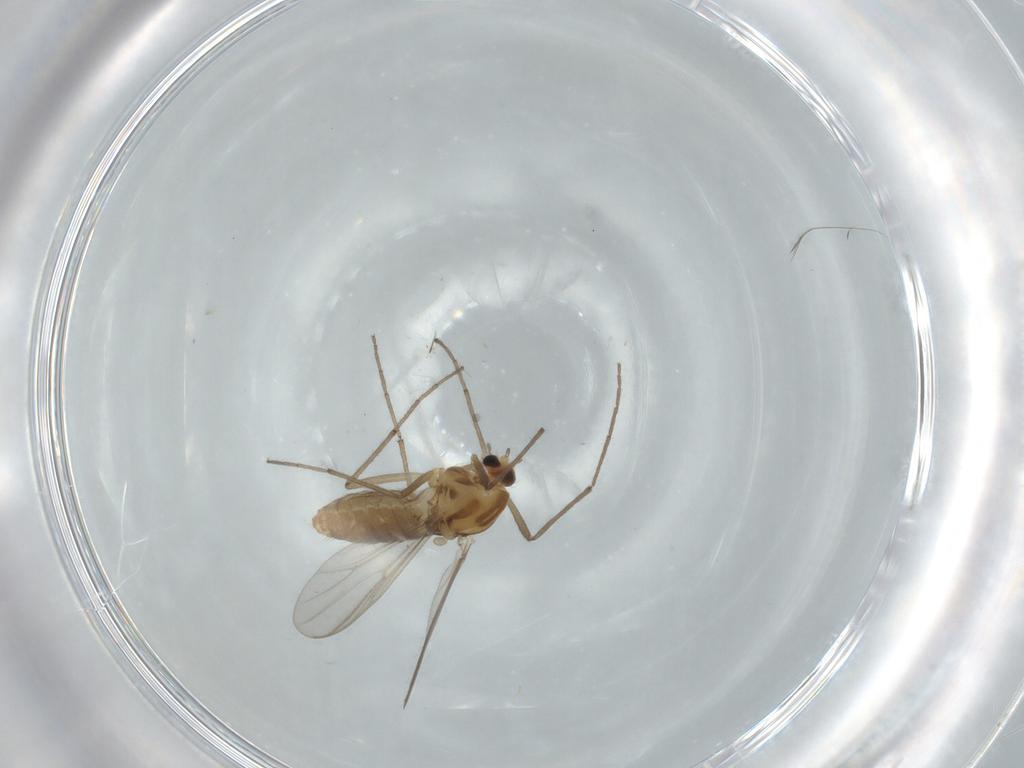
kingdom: Animalia
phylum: Arthropoda
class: Insecta
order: Diptera
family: Chironomidae
